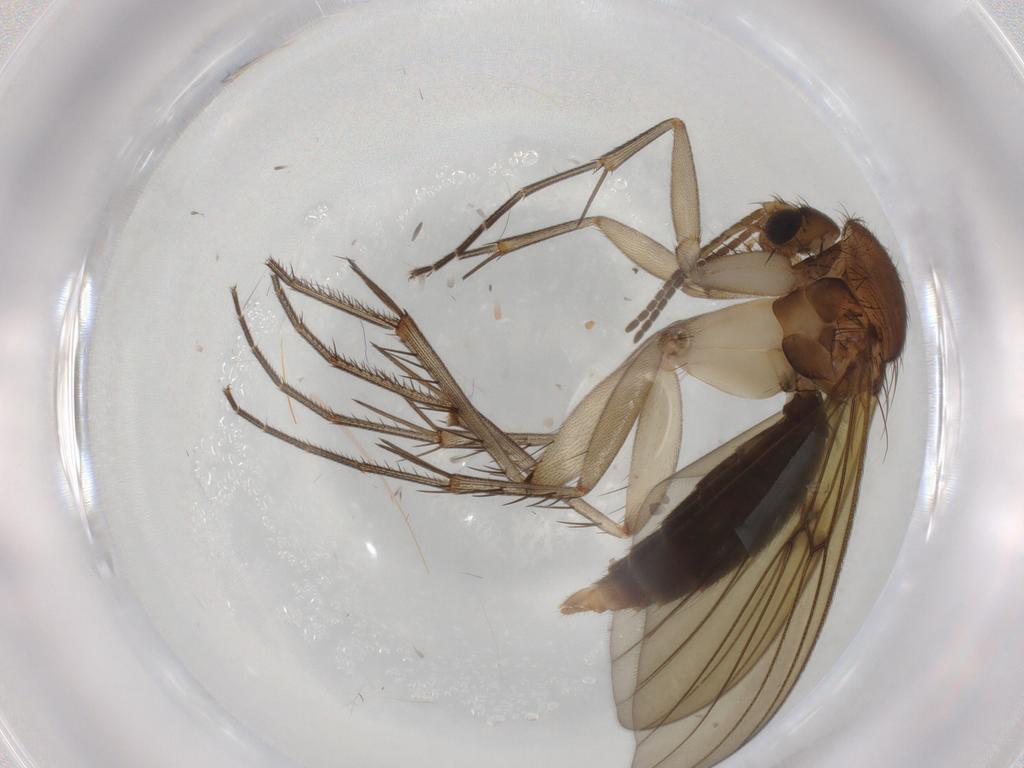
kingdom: Animalia
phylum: Arthropoda
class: Insecta
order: Diptera
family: Mycetophilidae
